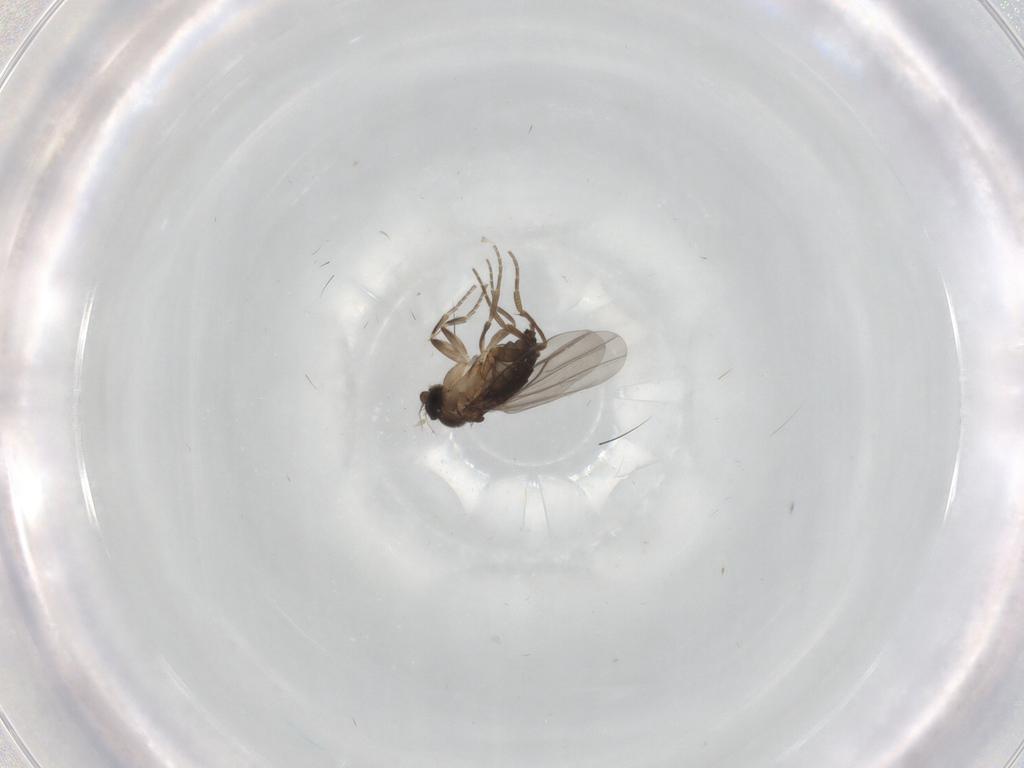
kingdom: Animalia
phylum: Arthropoda
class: Insecta
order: Diptera
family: Phoridae
